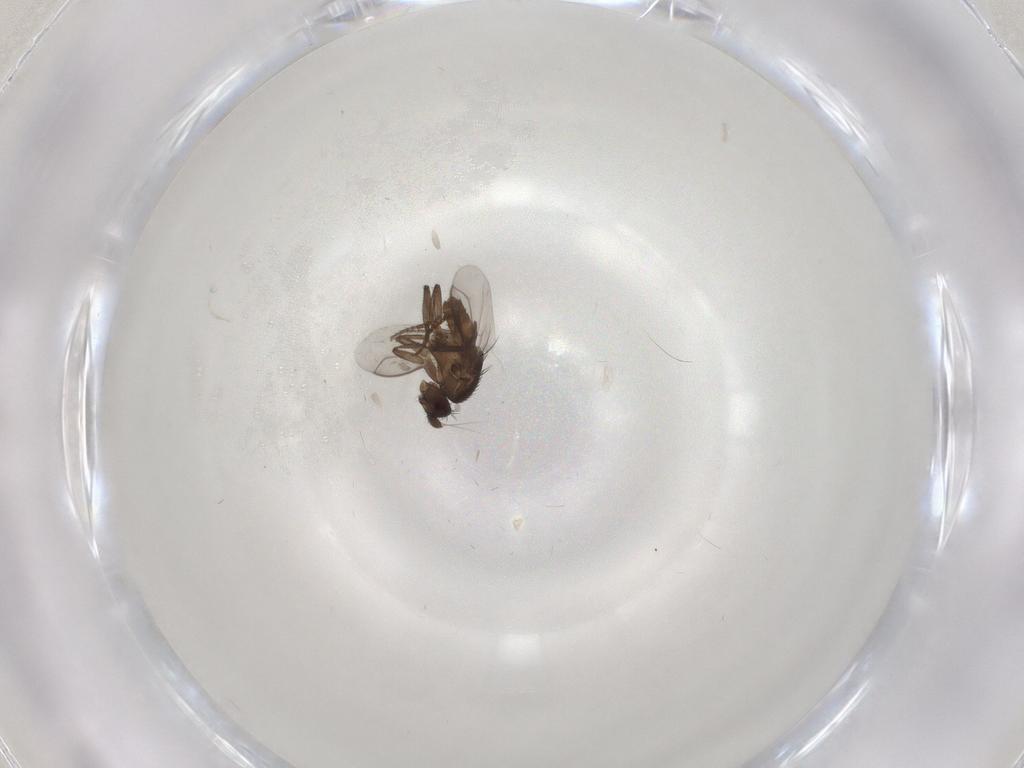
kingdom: Animalia
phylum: Arthropoda
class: Insecta
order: Diptera
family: Sphaeroceridae
